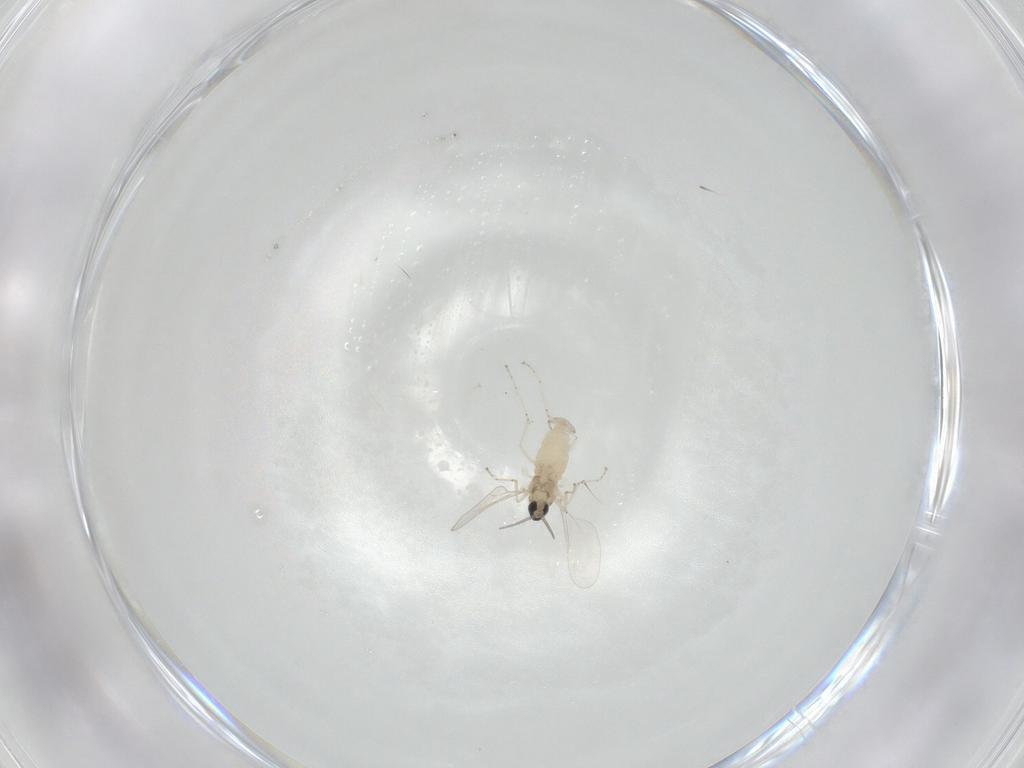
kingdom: Animalia
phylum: Arthropoda
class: Insecta
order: Diptera
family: Cecidomyiidae
